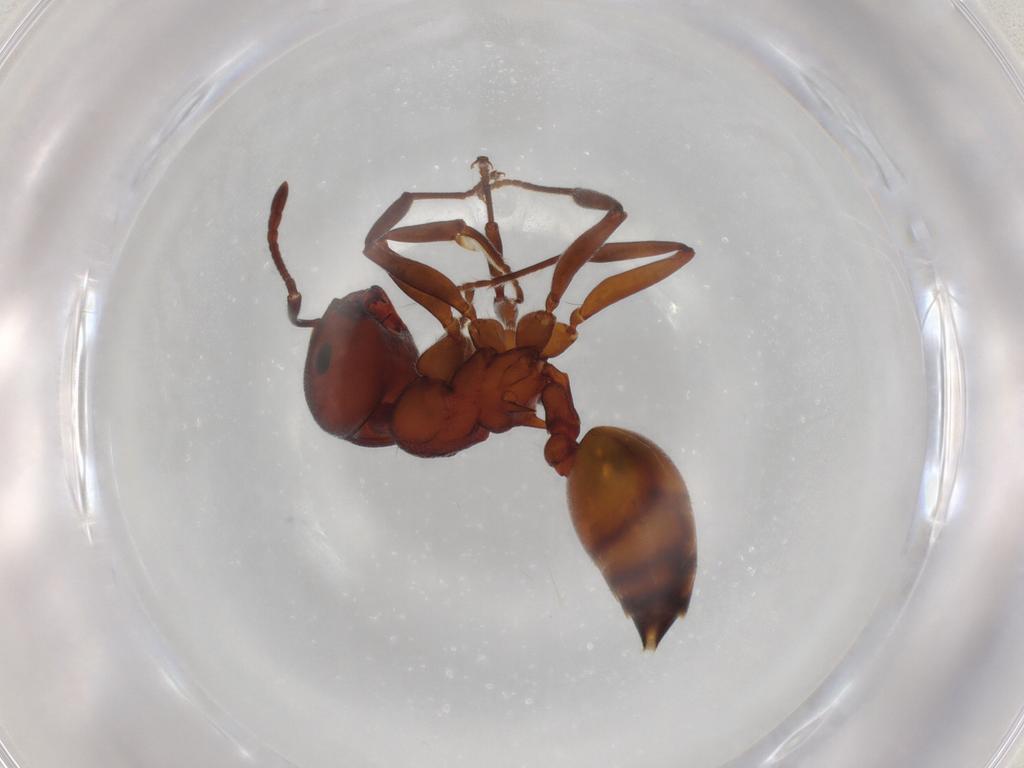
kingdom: Animalia
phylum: Arthropoda
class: Insecta
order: Hymenoptera
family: Formicidae
